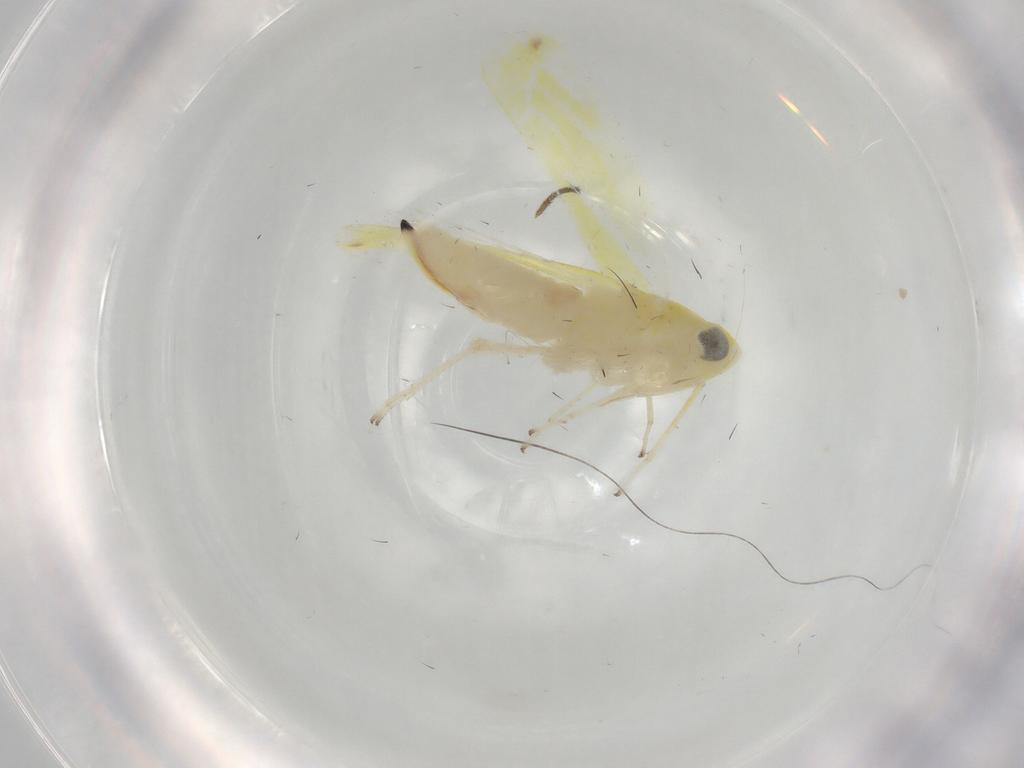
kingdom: Animalia
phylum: Arthropoda
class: Insecta
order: Hemiptera
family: Cicadellidae
